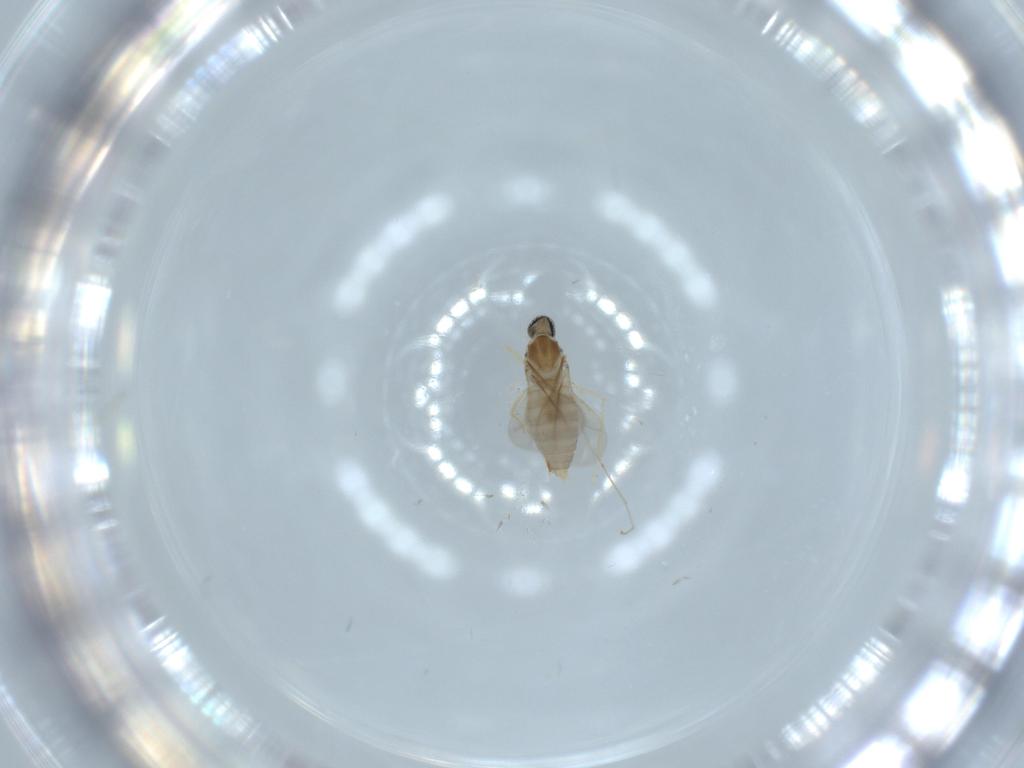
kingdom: Animalia
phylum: Arthropoda
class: Insecta
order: Diptera
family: Cecidomyiidae
